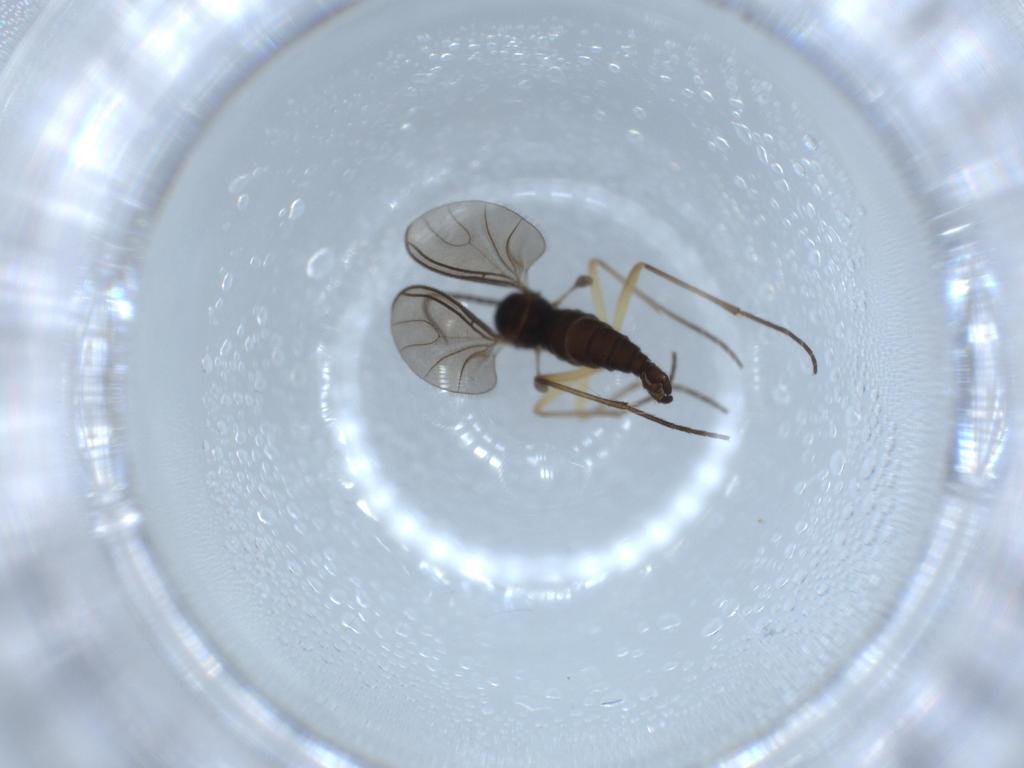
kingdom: Animalia
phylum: Arthropoda
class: Insecta
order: Diptera
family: Sciaridae
